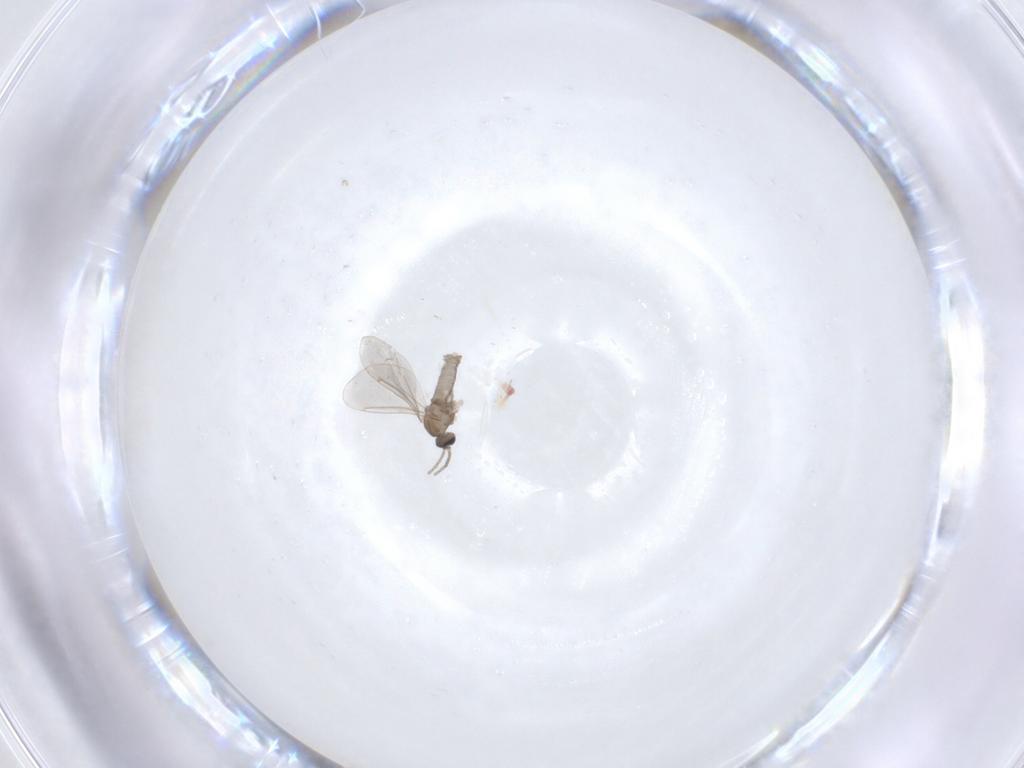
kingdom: Animalia
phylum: Arthropoda
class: Insecta
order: Diptera
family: Cecidomyiidae
